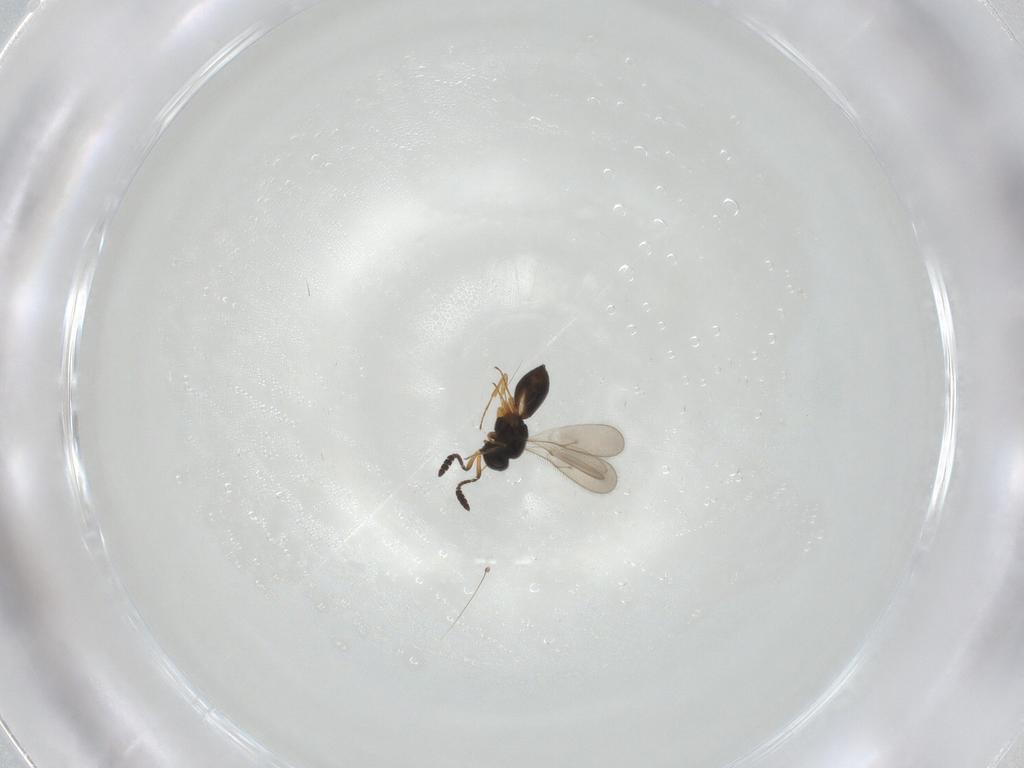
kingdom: Animalia
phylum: Arthropoda
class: Insecta
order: Hymenoptera
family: Scelionidae
